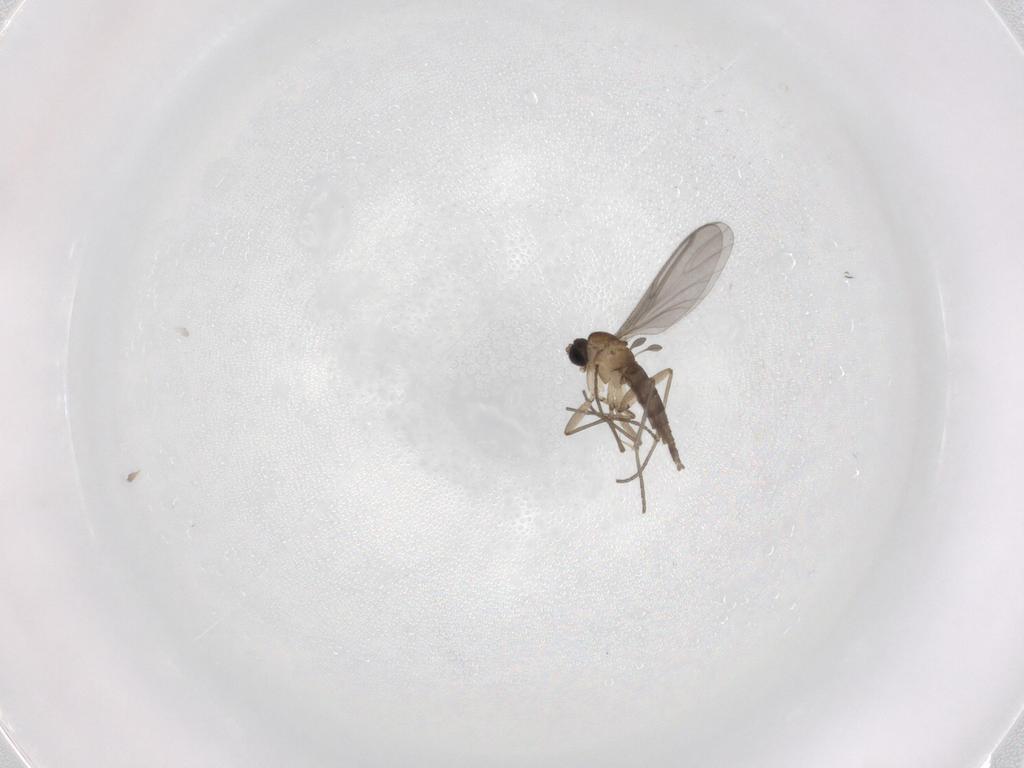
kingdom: Animalia
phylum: Arthropoda
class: Insecta
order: Diptera
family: Sciaridae
